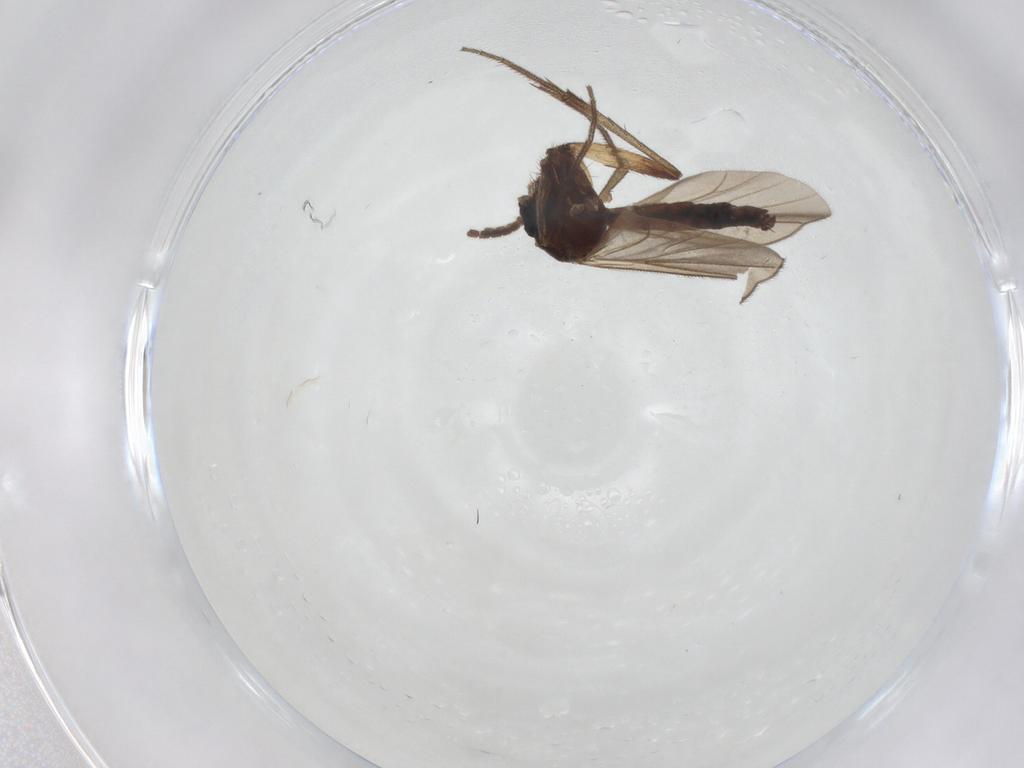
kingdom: Animalia
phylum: Arthropoda
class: Insecta
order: Diptera
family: Mycetophilidae
